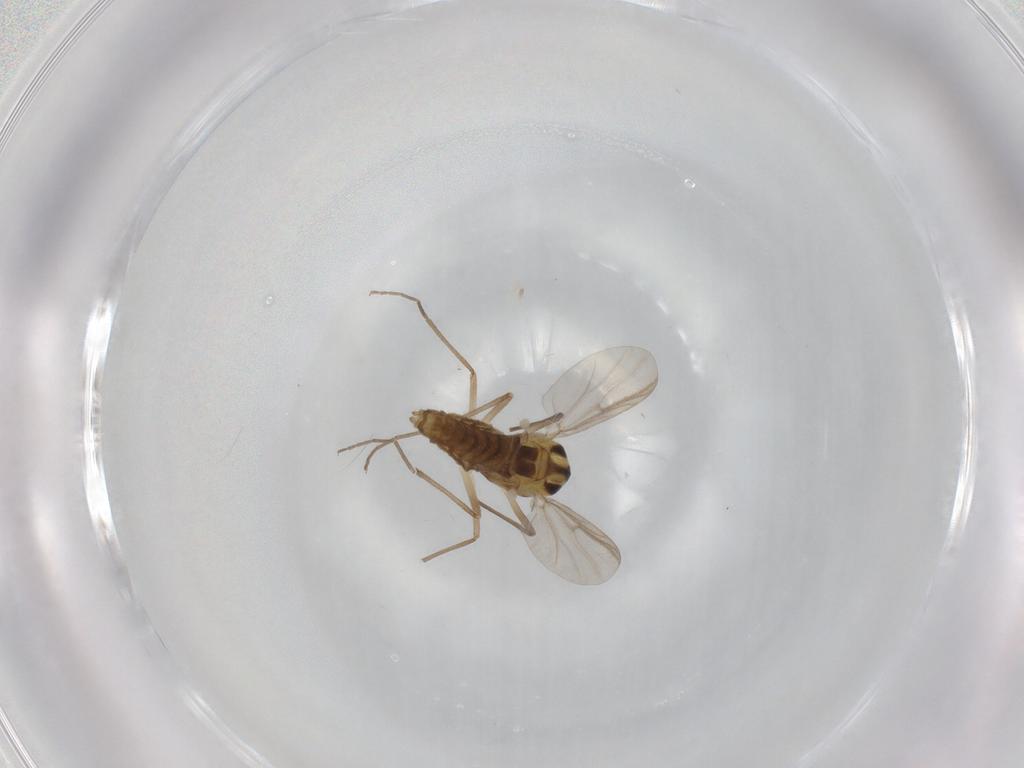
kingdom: Animalia
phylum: Arthropoda
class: Insecta
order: Diptera
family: Chironomidae
